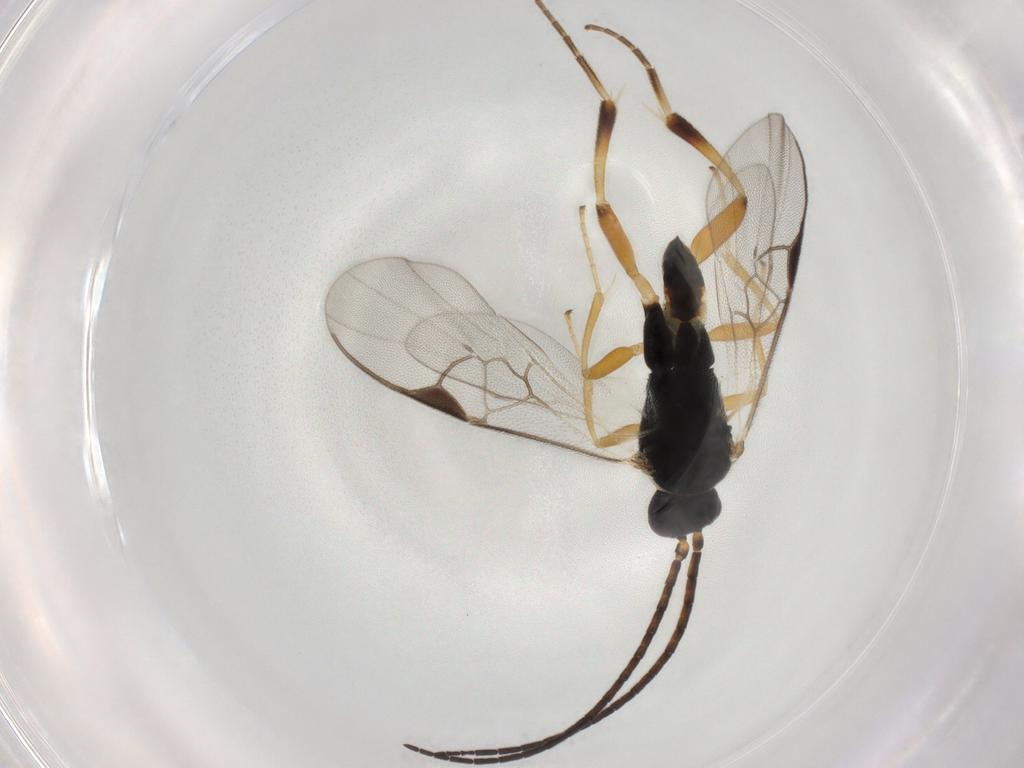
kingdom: Animalia
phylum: Arthropoda
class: Insecta
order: Hymenoptera
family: Braconidae
